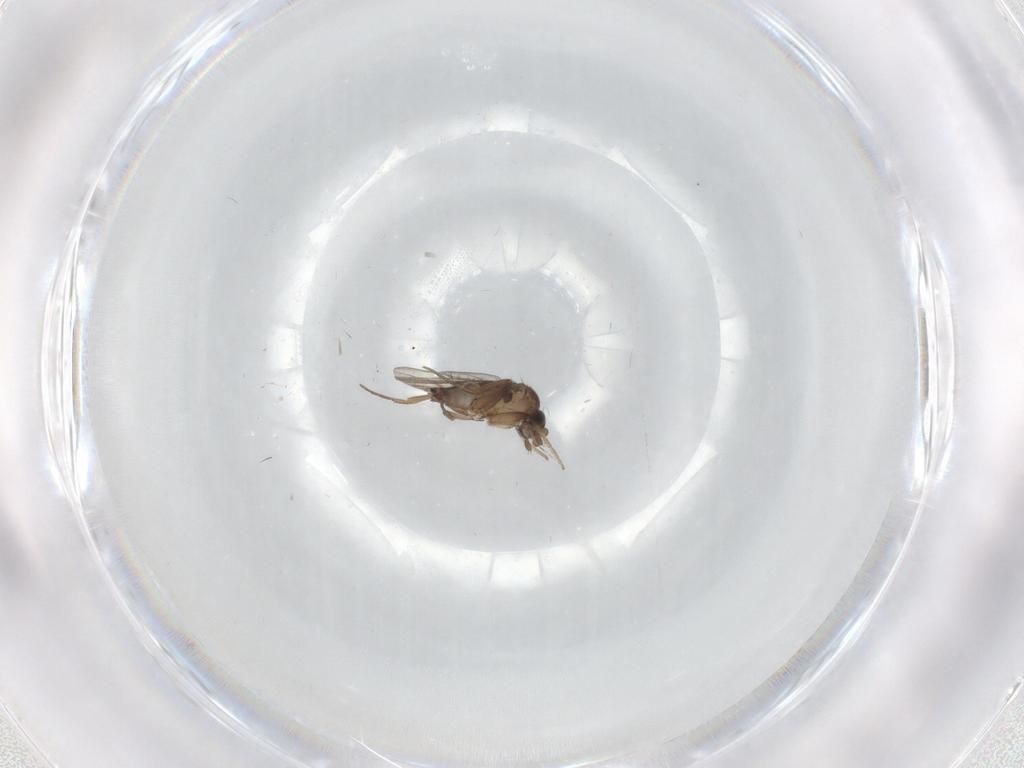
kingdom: Animalia
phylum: Arthropoda
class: Insecta
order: Diptera
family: Phoridae
